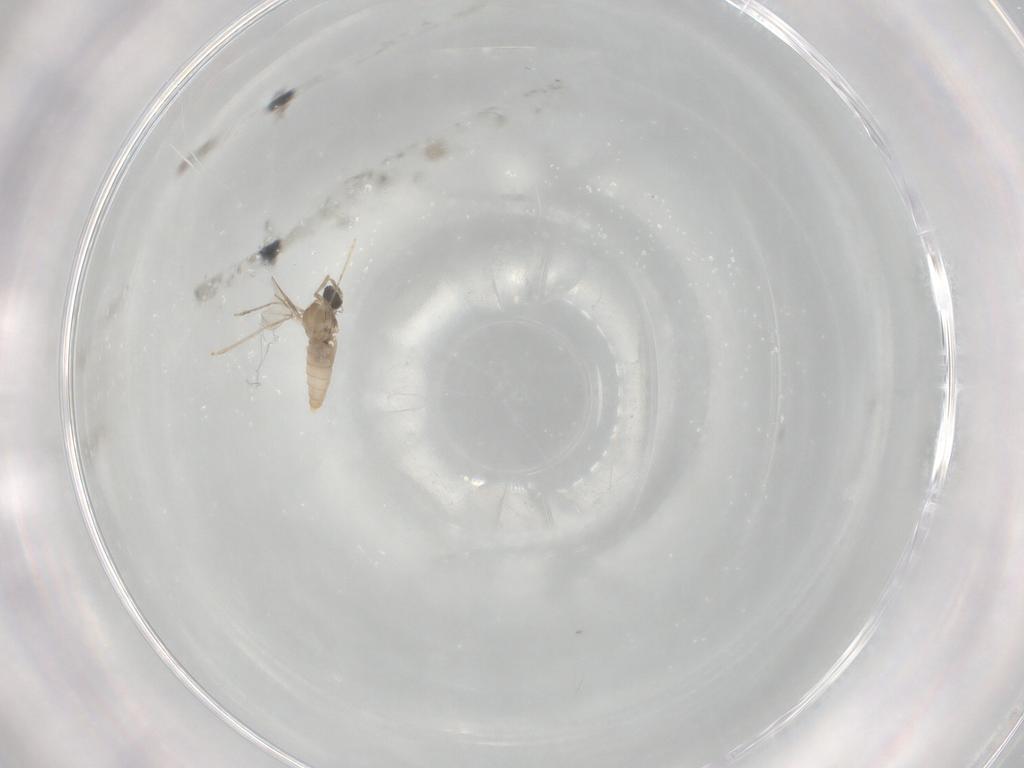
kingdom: Animalia
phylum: Arthropoda
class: Insecta
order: Diptera
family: Cecidomyiidae
